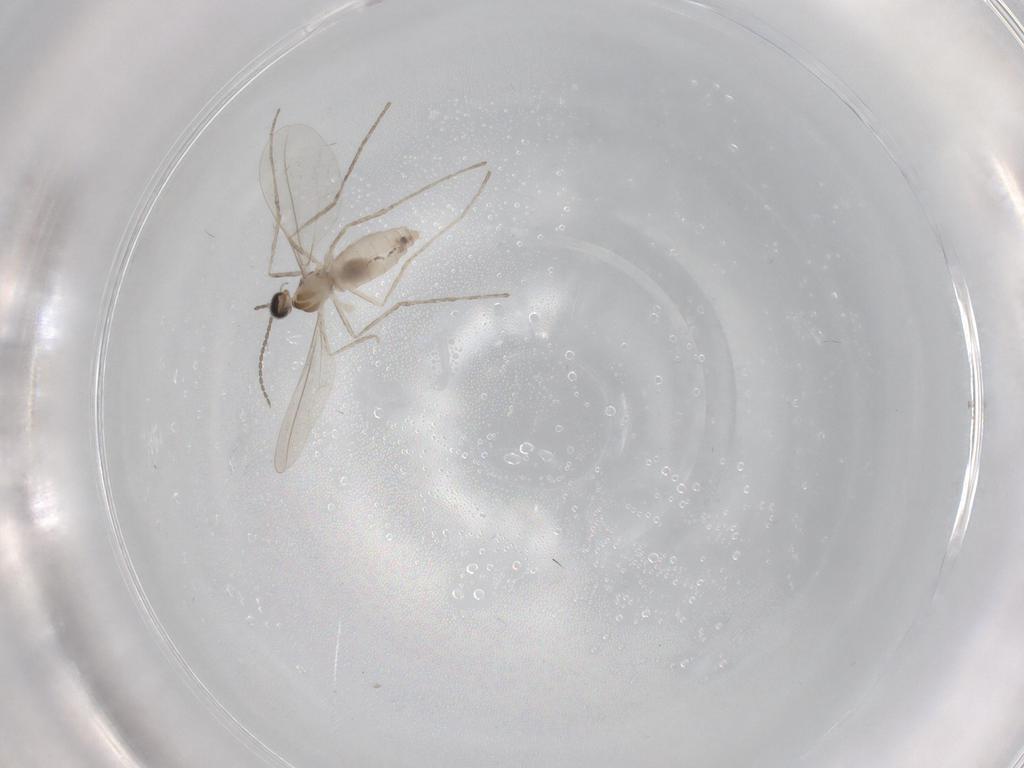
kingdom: Animalia
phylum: Arthropoda
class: Insecta
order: Diptera
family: Cecidomyiidae
